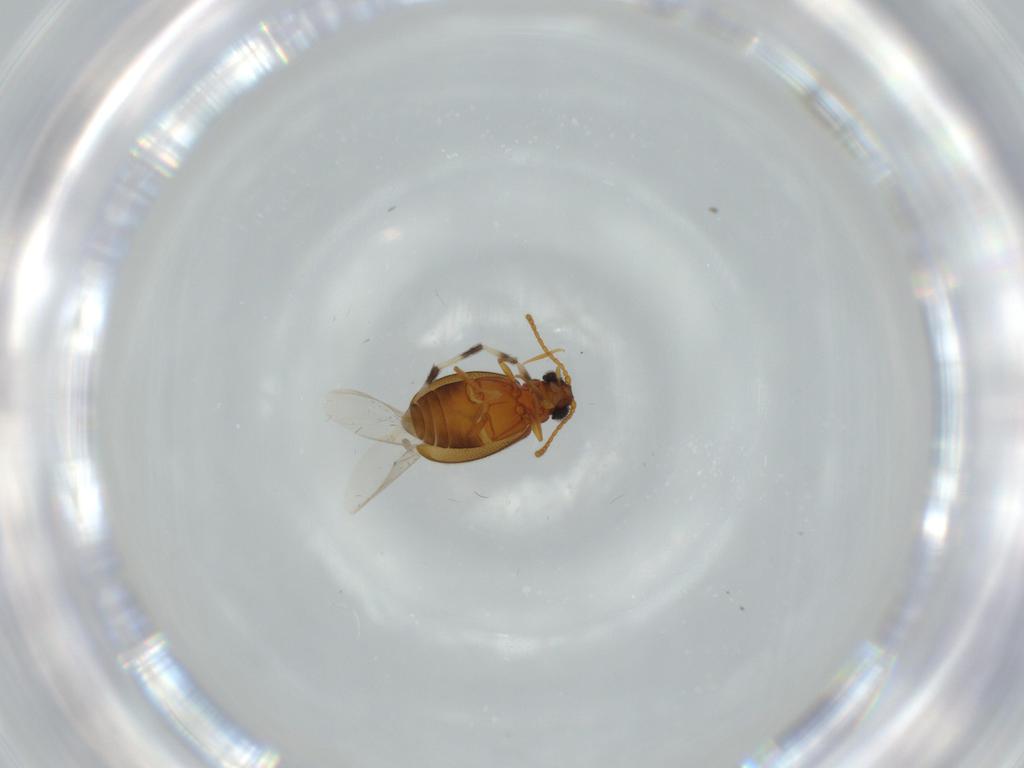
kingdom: Animalia
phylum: Arthropoda
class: Insecta
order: Coleoptera
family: Aderidae
